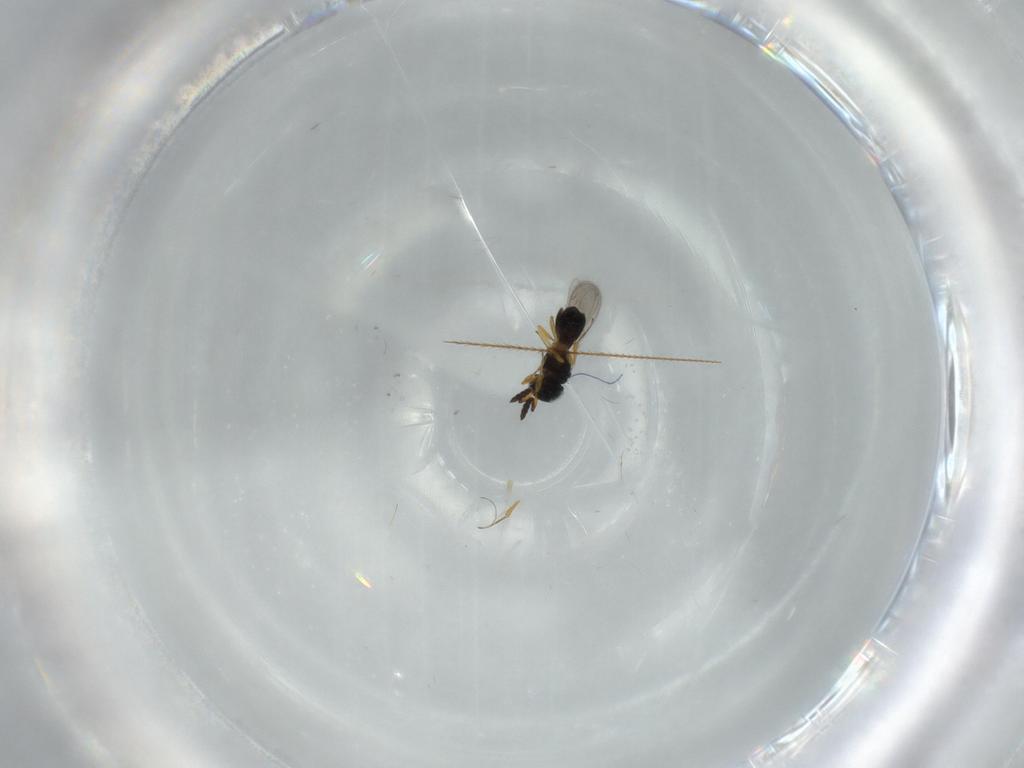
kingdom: Animalia
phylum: Arthropoda
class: Insecta
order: Hymenoptera
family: Scelionidae
